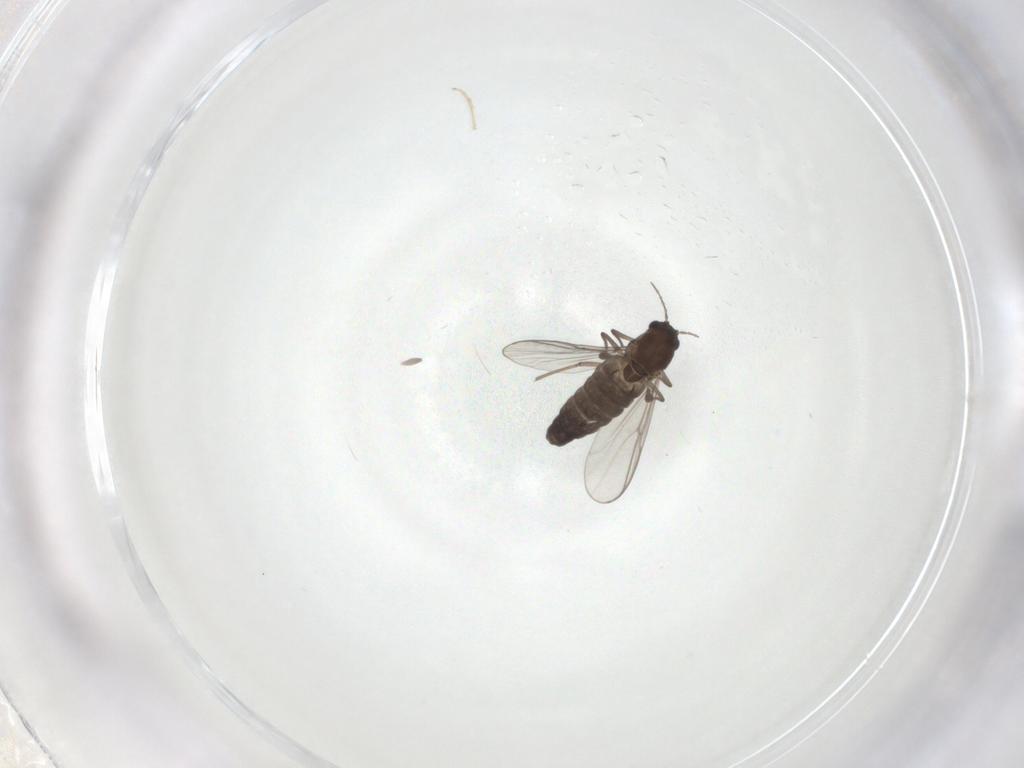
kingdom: Animalia
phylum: Arthropoda
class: Insecta
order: Diptera
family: Chironomidae
